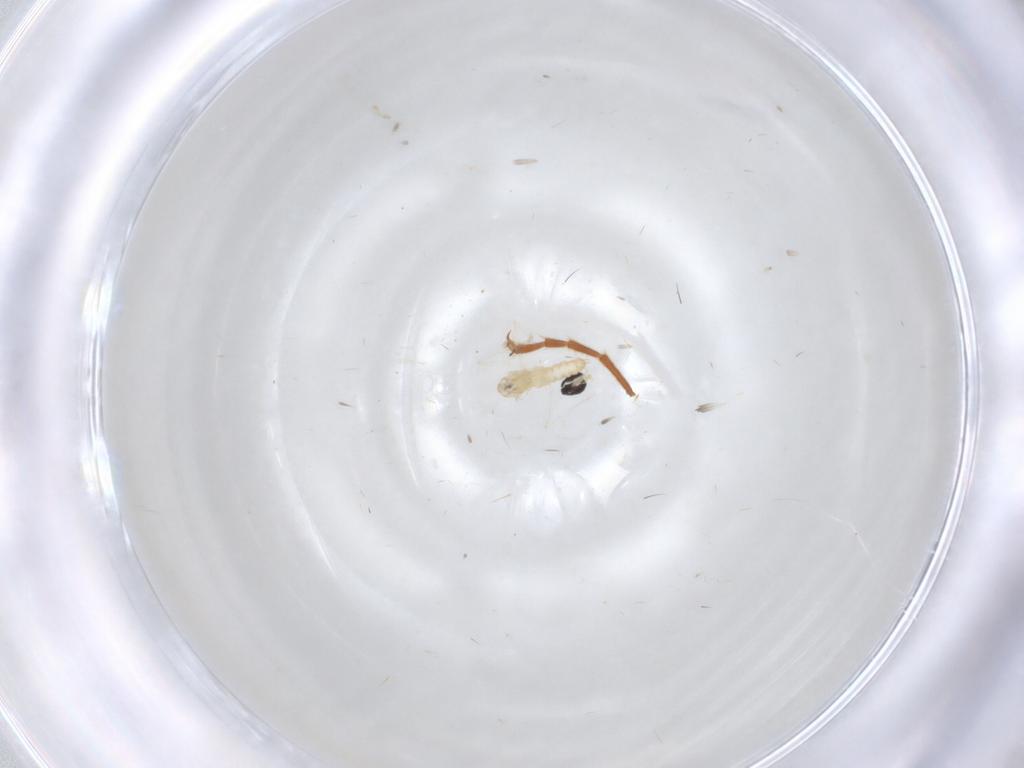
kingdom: Animalia
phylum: Arthropoda
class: Insecta
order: Diptera
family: Cecidomyiidae
